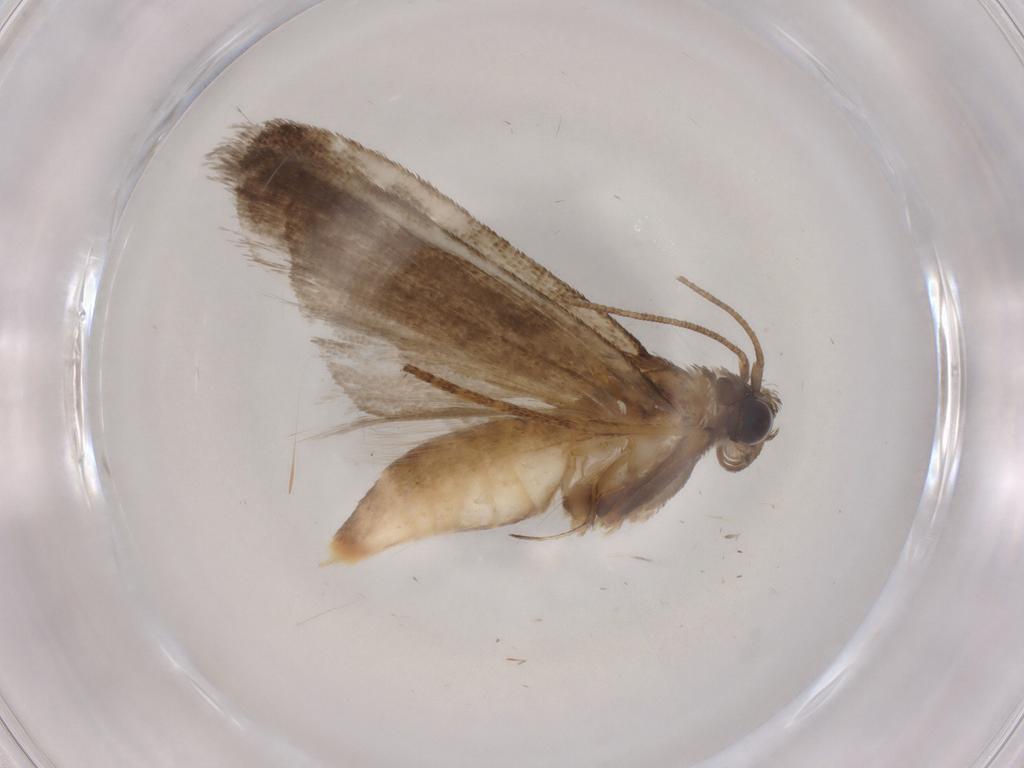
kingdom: Animalia
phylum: Arthropoda
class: Insecta
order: Lepidoptera
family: Noctuidae
